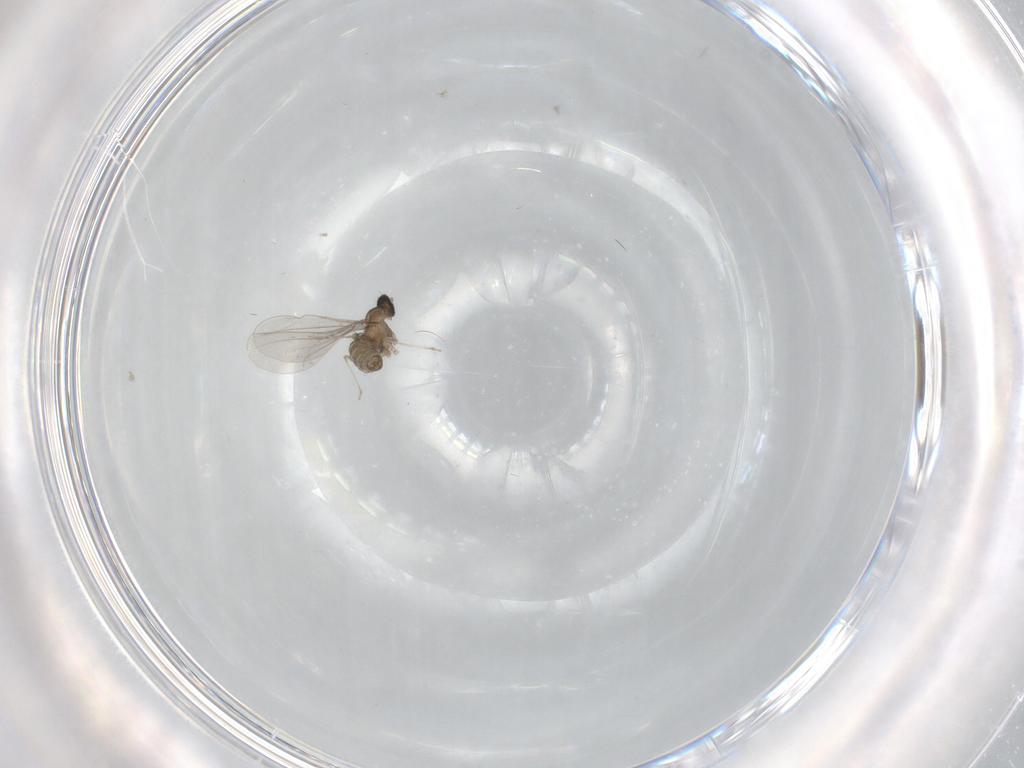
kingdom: Animalia
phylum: Arthropoda
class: Insecta
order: Diptera
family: Cecidomyiidae
